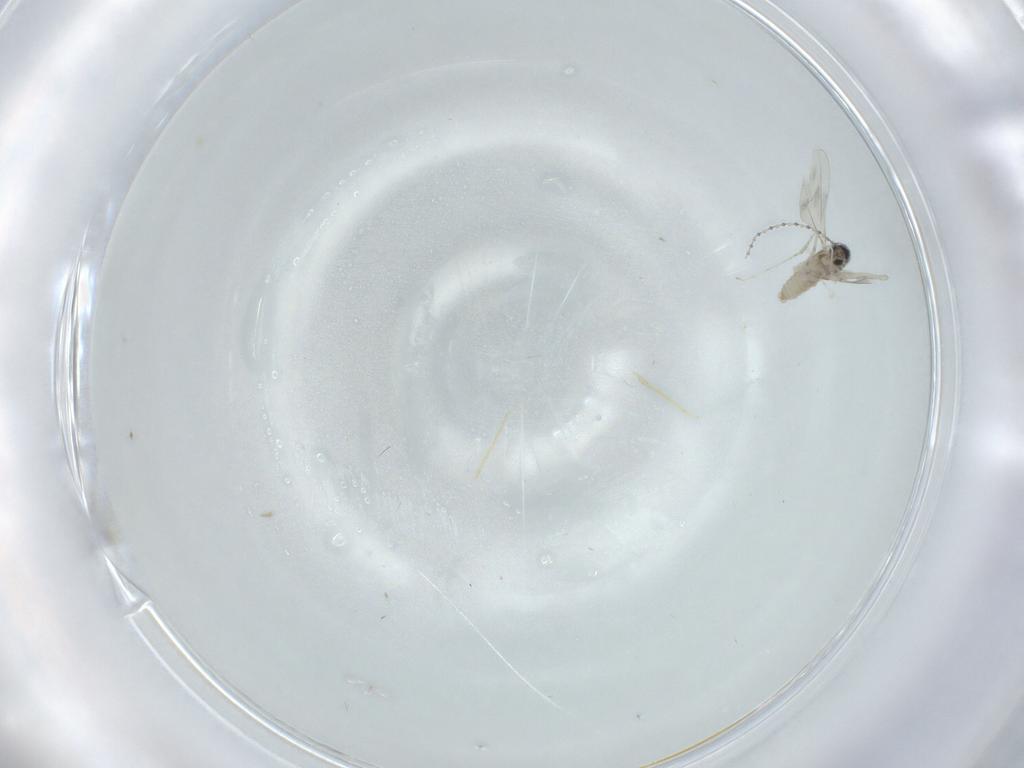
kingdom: Animalia
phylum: Arthropoda
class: Insecta
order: Diptera
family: Cecidomyiidae
